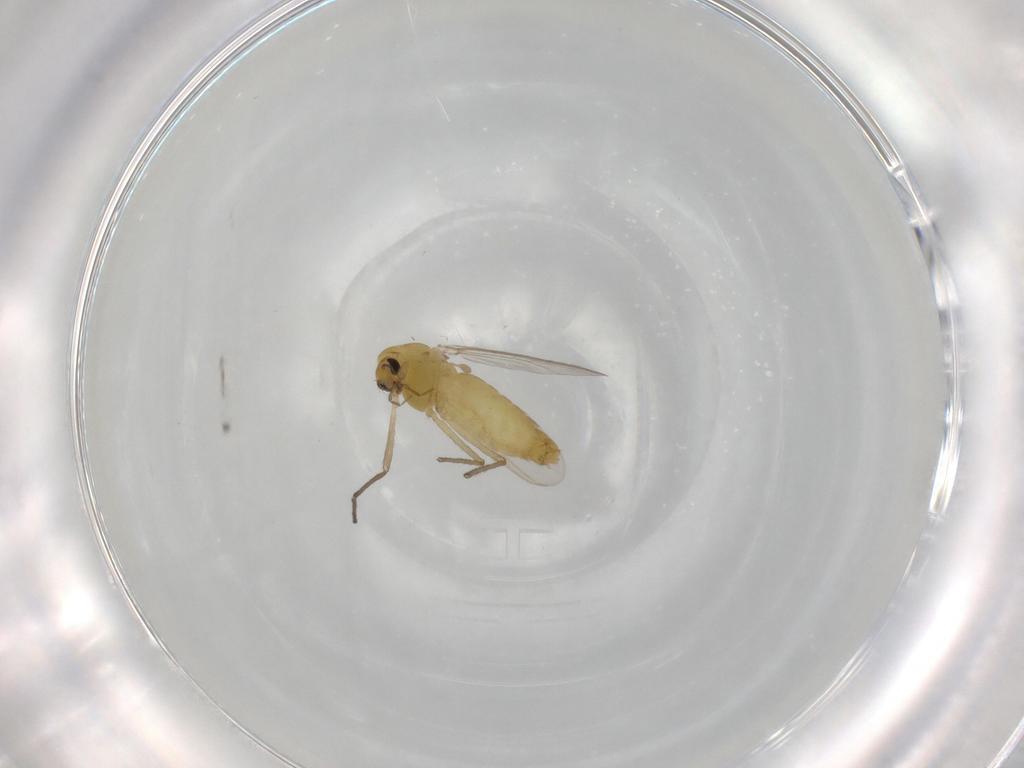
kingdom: Animalia
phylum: Arthropoda
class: Insecta
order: Diptera
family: Chironomidae
